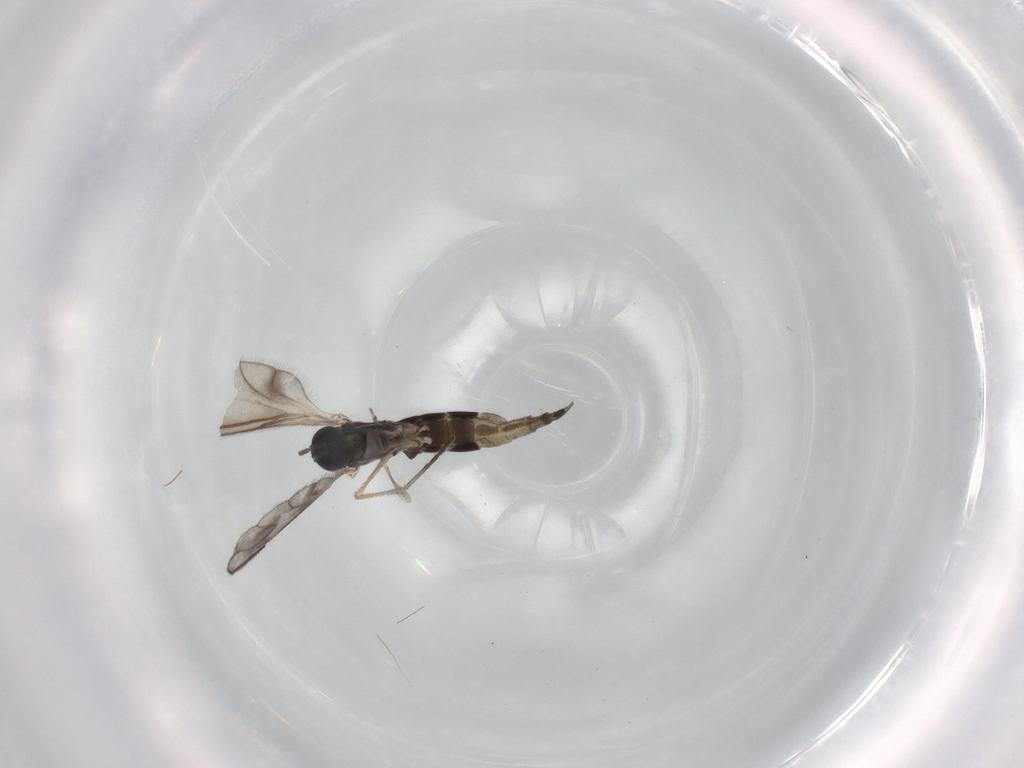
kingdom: Animalia
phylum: Arthropoda
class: Insecta
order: Diptera
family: Sciaridae
